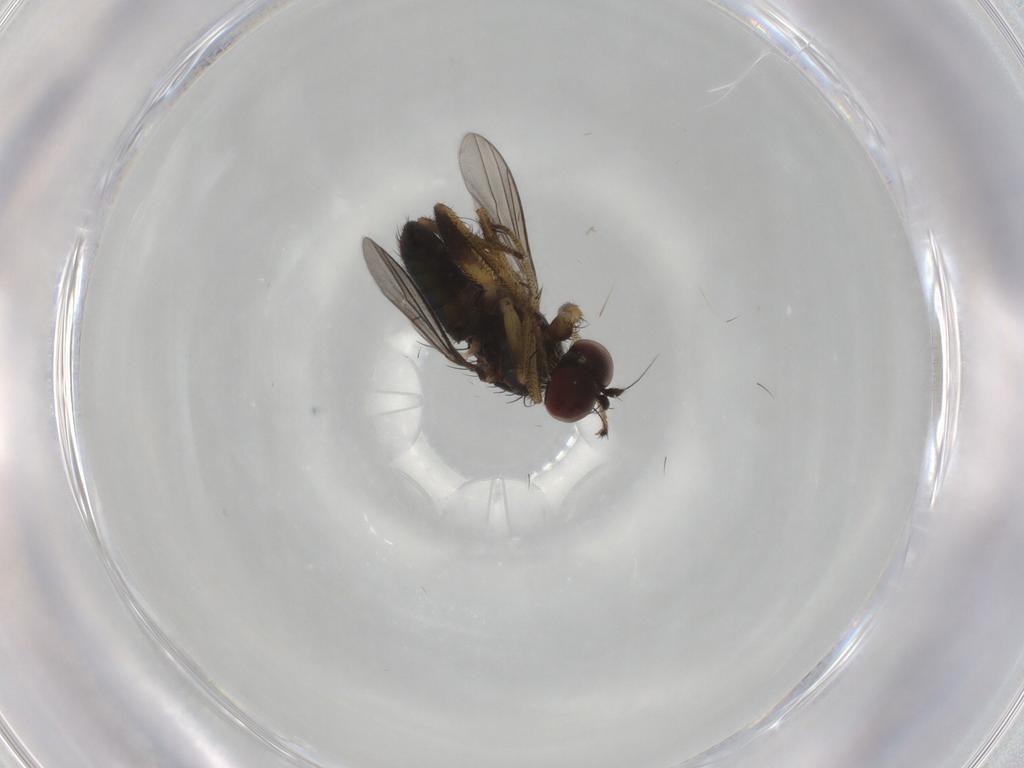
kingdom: Animalia
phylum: Arthropoda
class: Insecta
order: Diptera
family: Dolichopodidae
